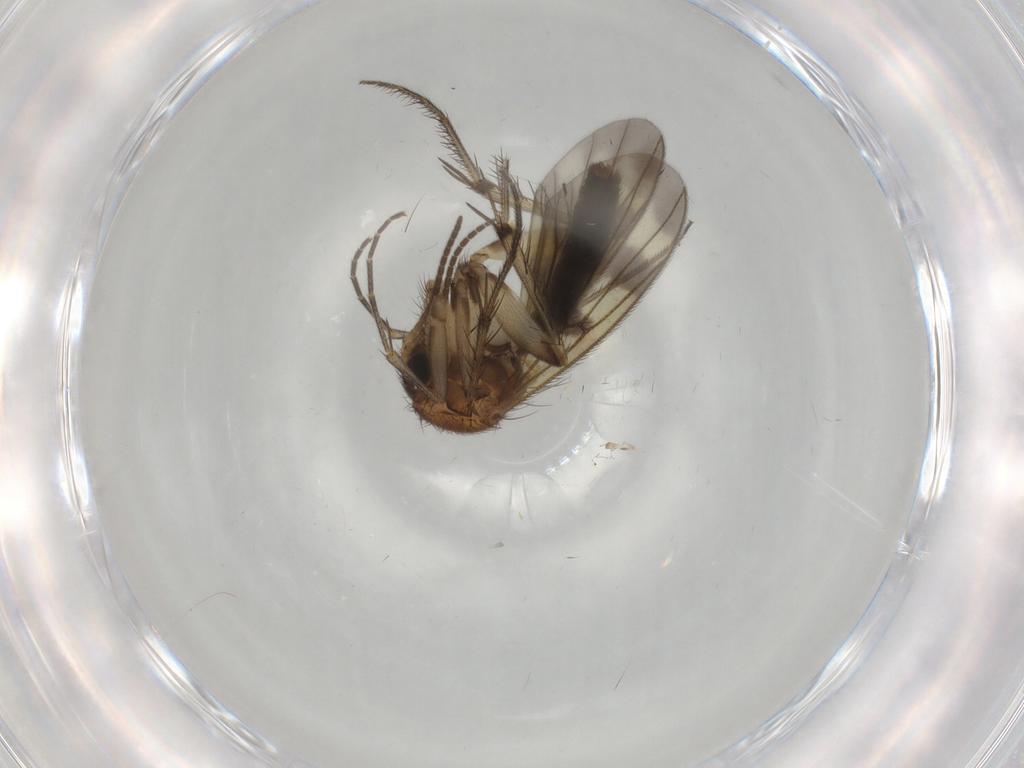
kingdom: Animalia
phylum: Arthropoda
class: Insecta
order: Diptera
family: Mycetophilidae
